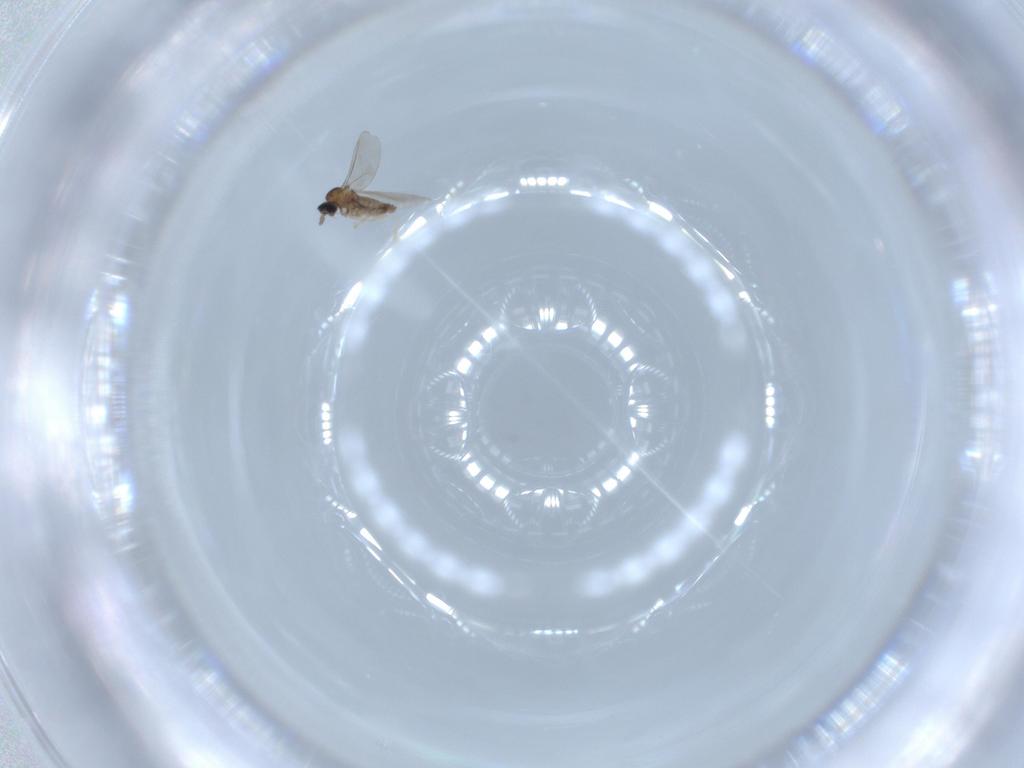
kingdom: Animalia
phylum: Arthropoda
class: Insecta
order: Diptera
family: Cecidomyiidae
